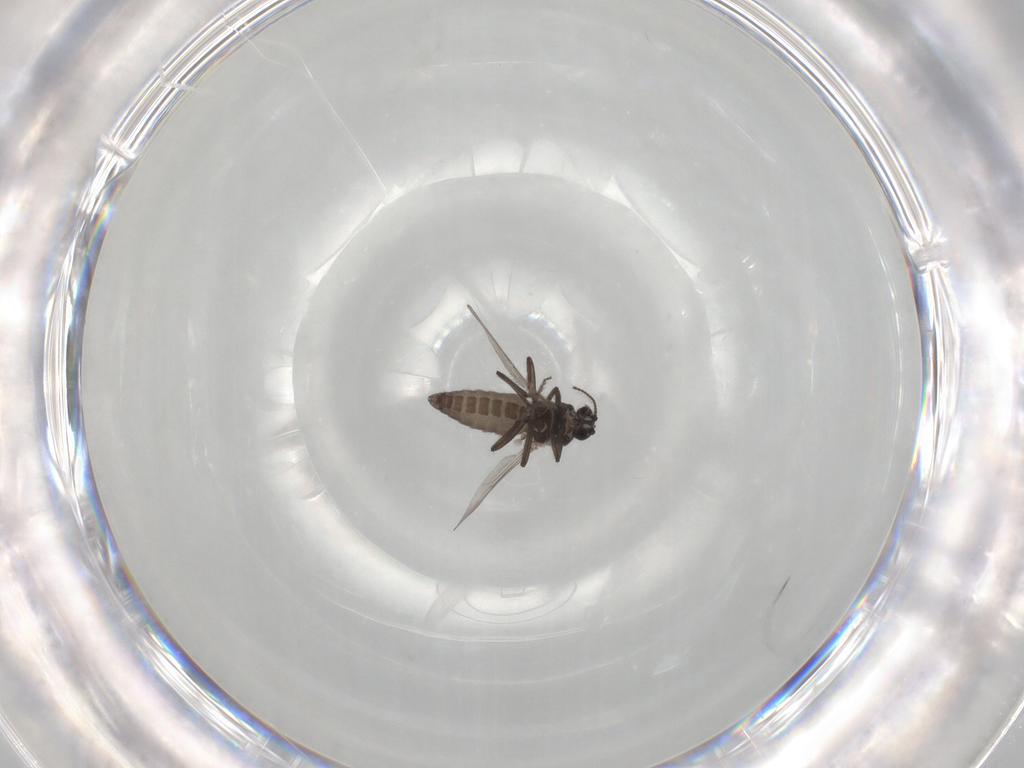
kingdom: Animalia
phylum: Arthropoda
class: Insecta
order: Diptera
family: Ceratopogonidae
